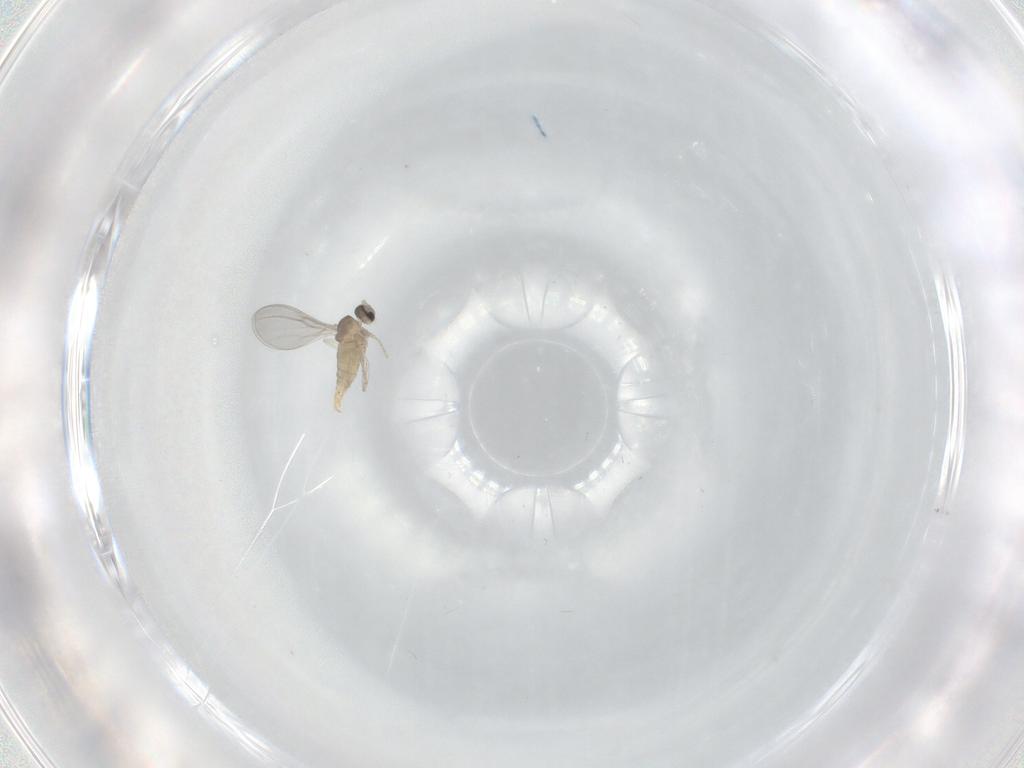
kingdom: Animalia
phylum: Arthropoda
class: Insecta
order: Diptera
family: Cecidomyiidae
